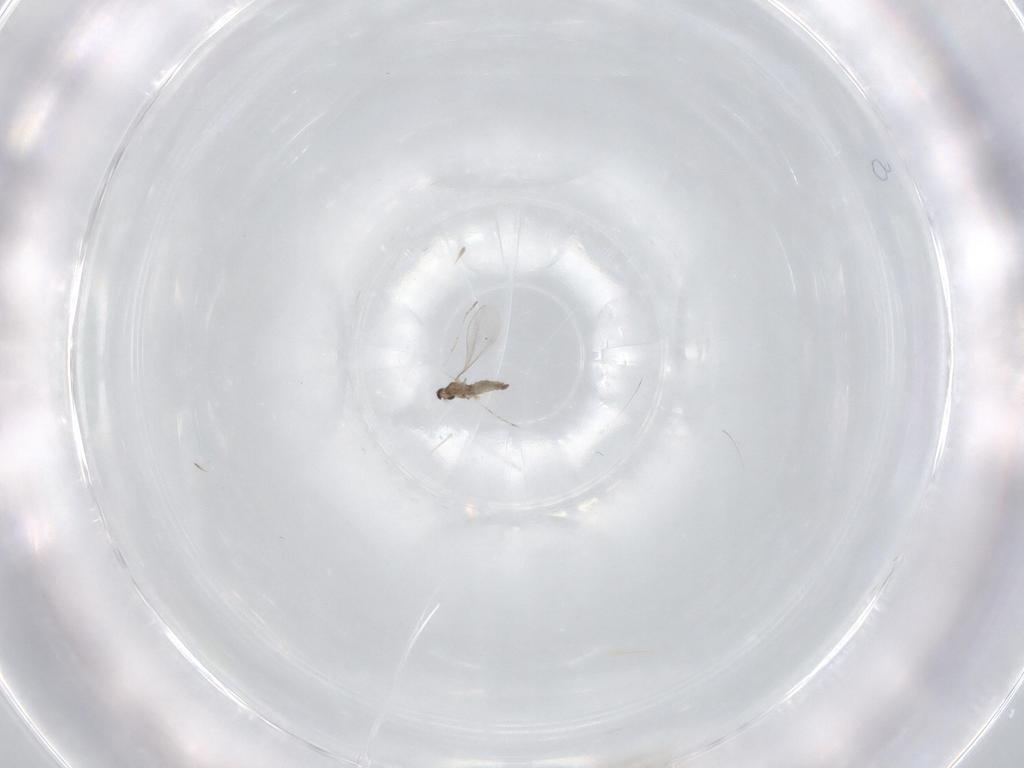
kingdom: Animalia
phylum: Arthropoda
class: Insecta
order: Diptera
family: Cecidomyiidae
